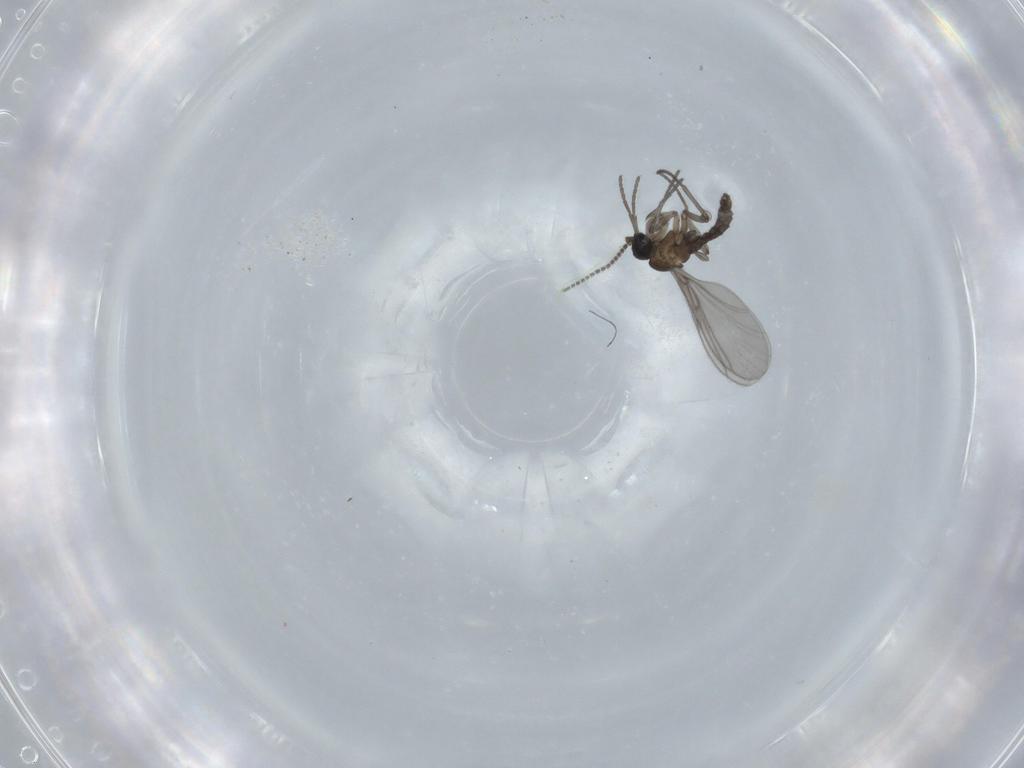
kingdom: Animalia
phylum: Arthropoda
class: Insecta
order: Diptera
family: Psychodidae
